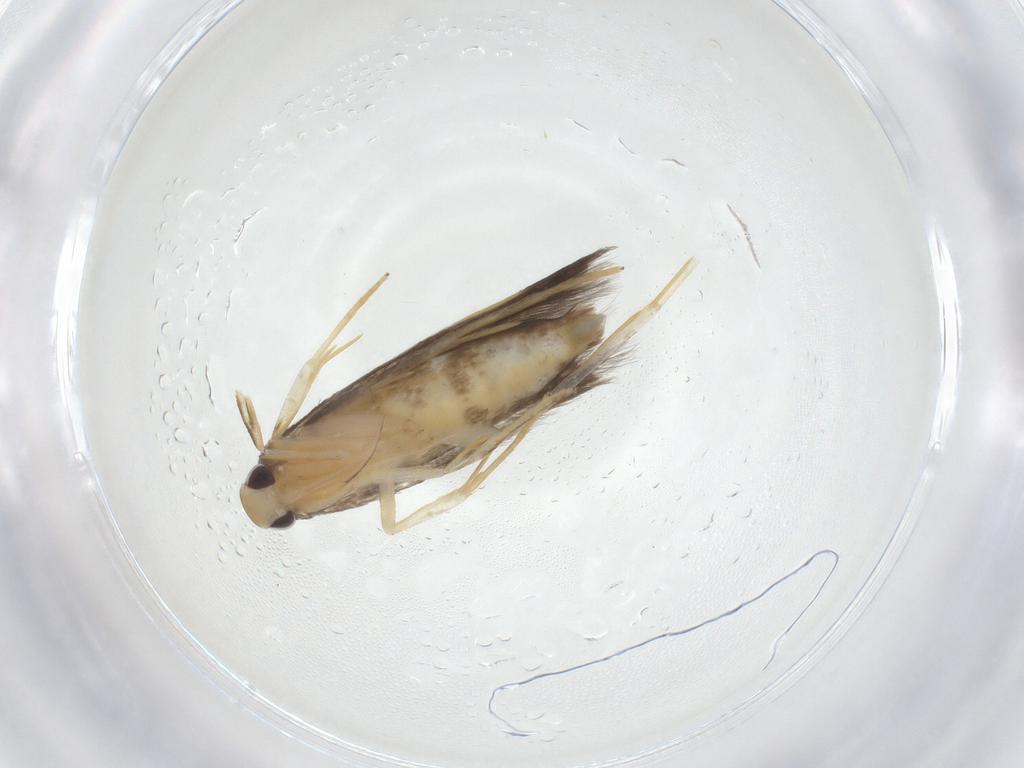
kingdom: Animalia
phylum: Arthropoda
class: Insecta
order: Lepidoptera
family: Cosmopterigidae
